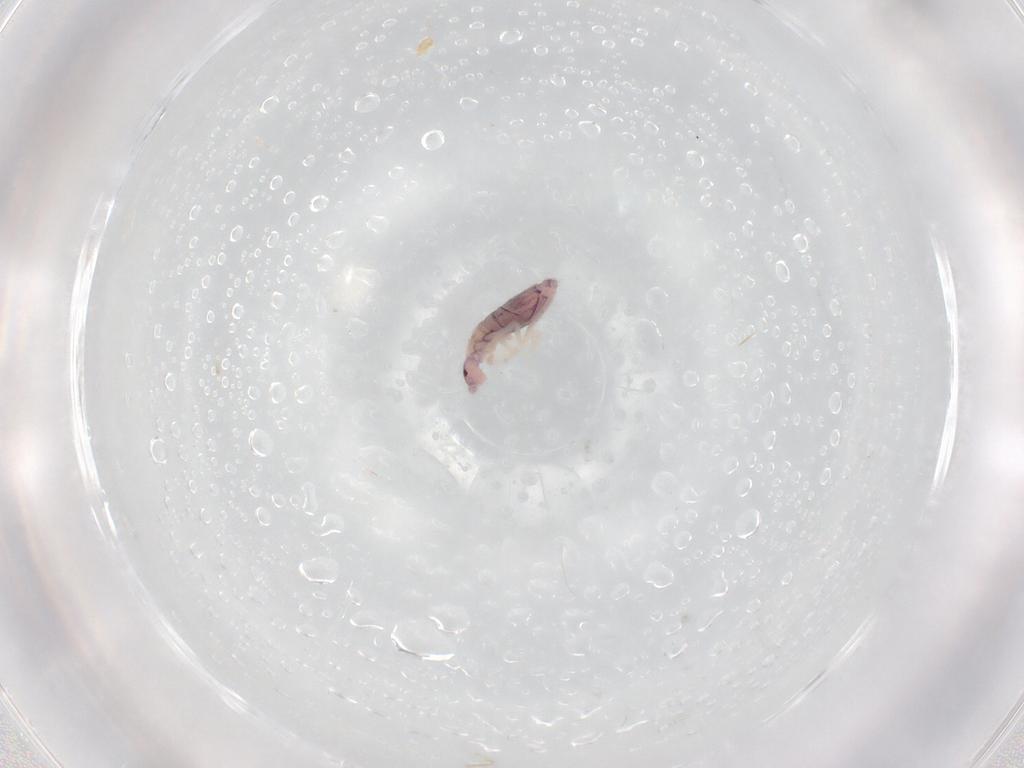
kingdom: Animalia
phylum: Arthropoda
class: Collembola
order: Entomobryomorpha
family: Entomobryidae
